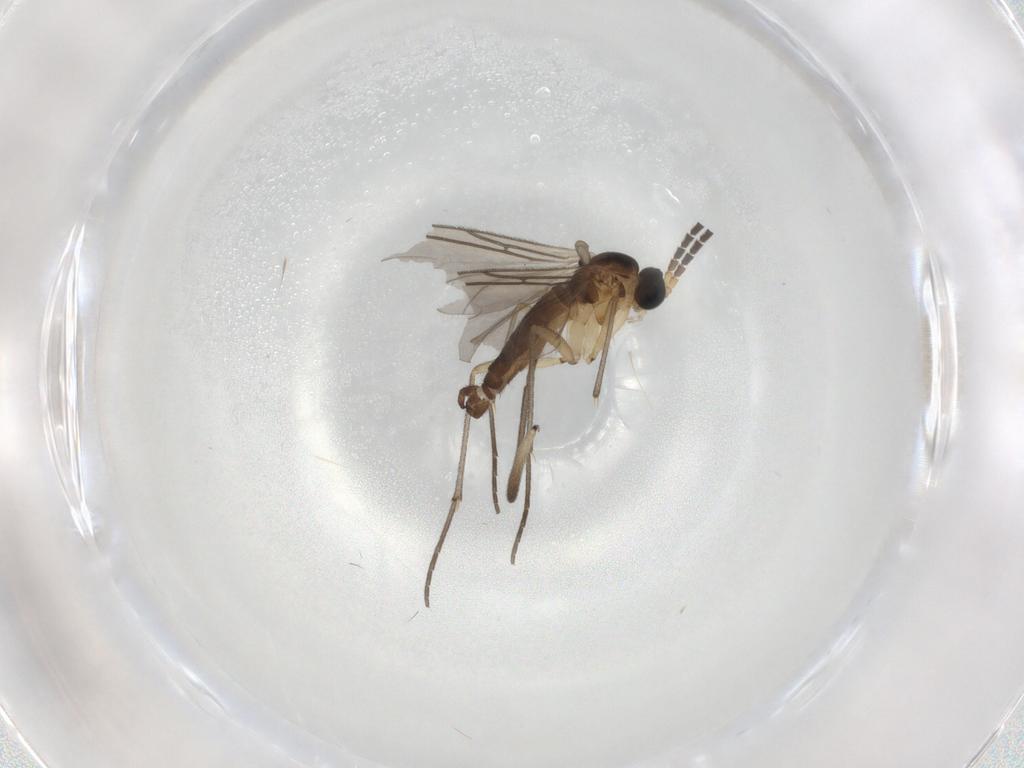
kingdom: Animalia
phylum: Arthropoda
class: Insecta
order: Diptera
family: Sciaridae
